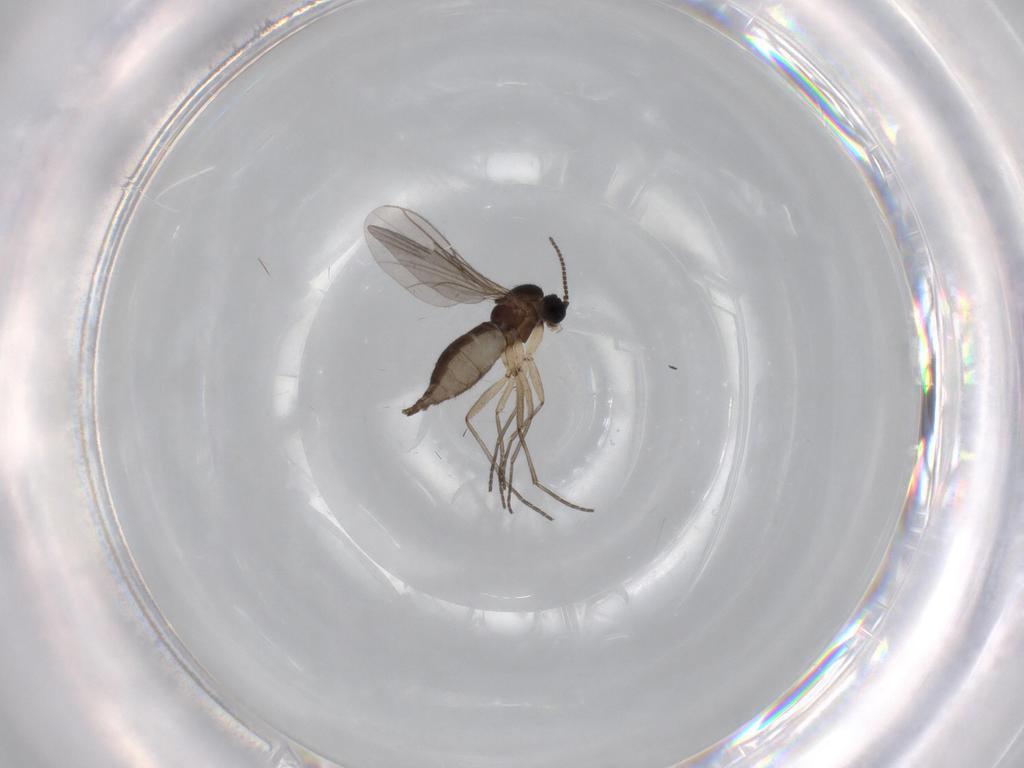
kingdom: Animalia
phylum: Arthropoda
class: Insecta
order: Diptera
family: Sciaridae
